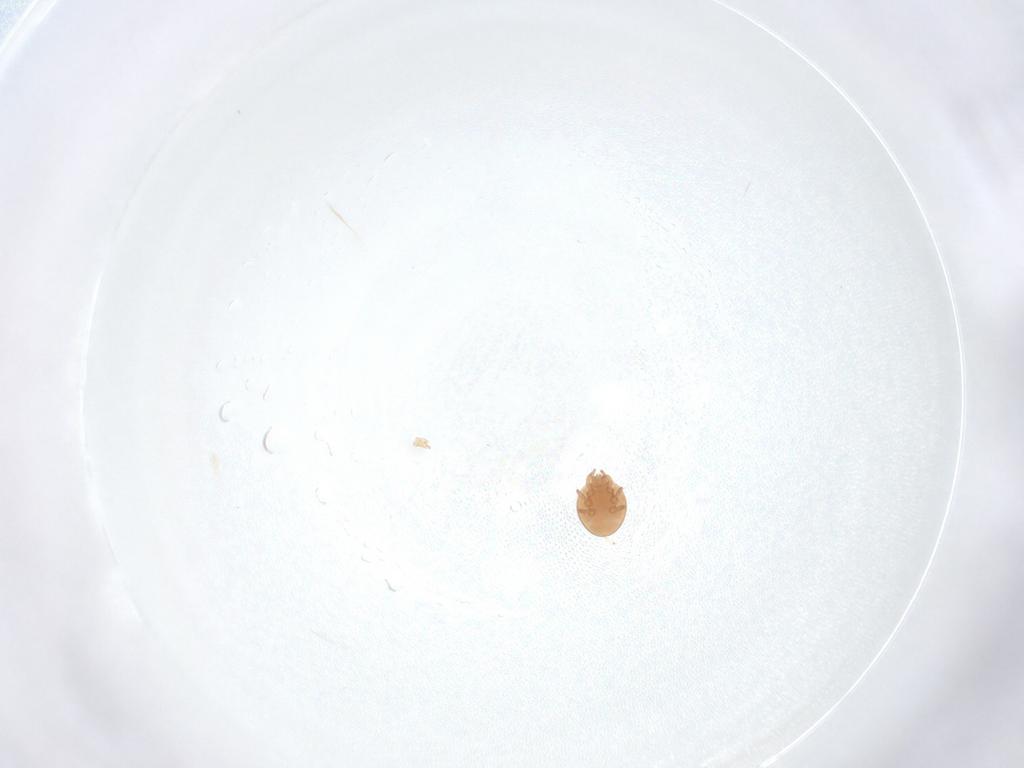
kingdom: Animalia
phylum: Arthropoda
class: Arachnida
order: Mesostigmata
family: Trematuridae
